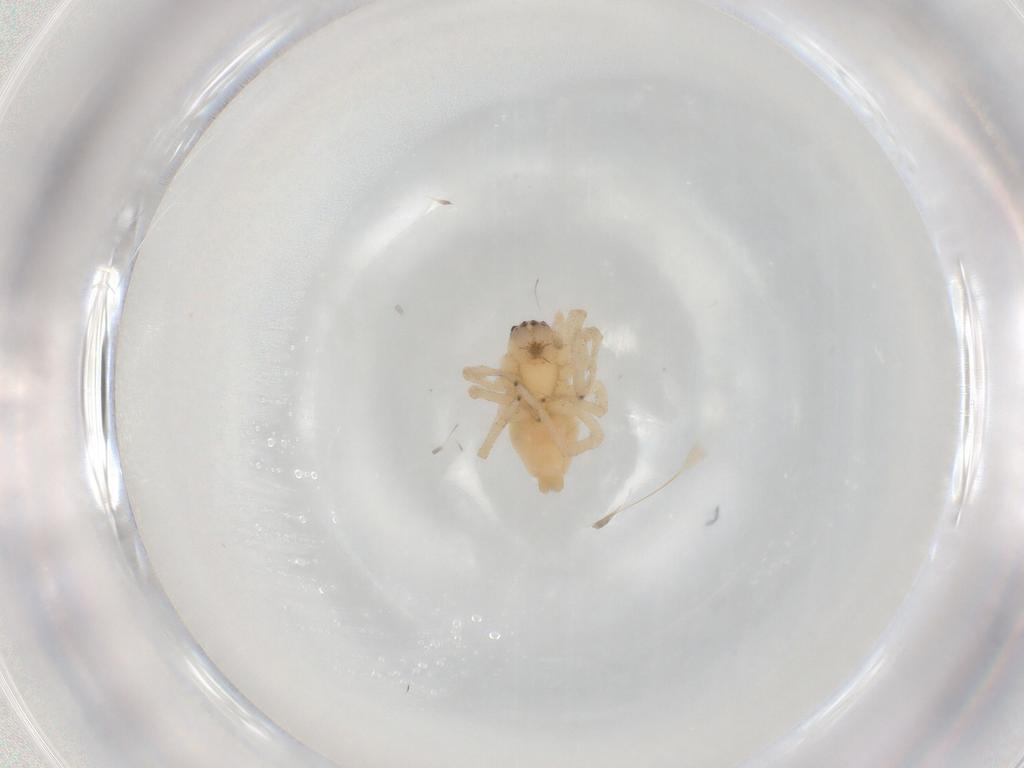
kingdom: Animalia
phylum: Arthropoda
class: Arachnida
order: Araneae
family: Cheiracanthiidae
